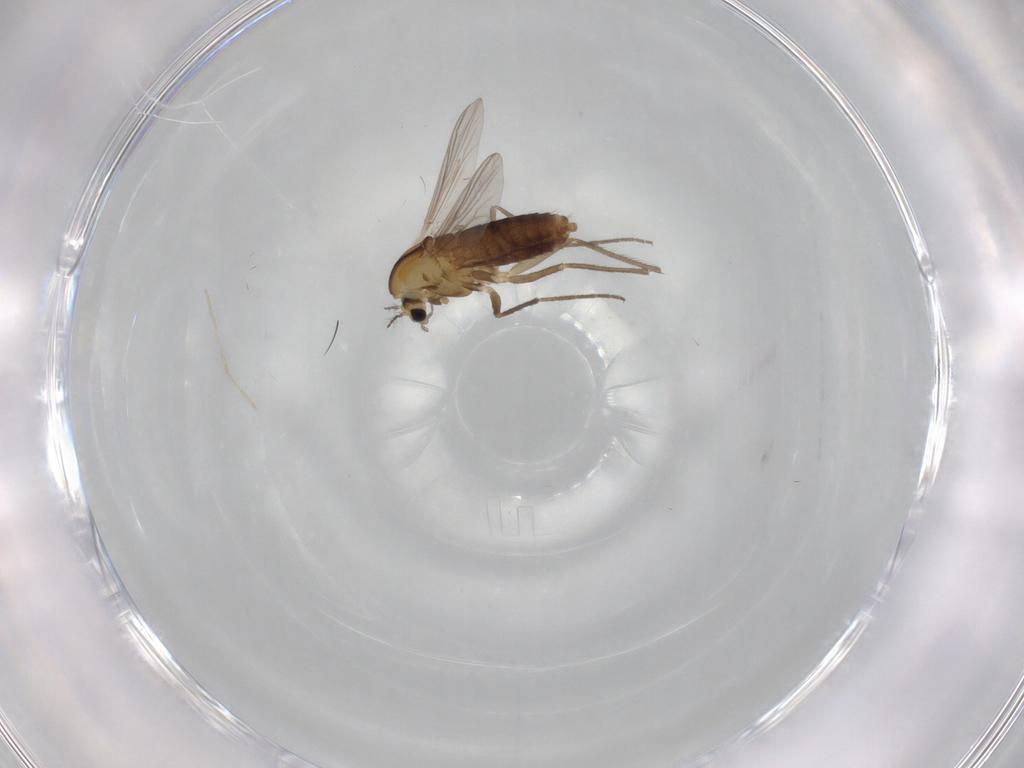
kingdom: Animalia
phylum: Arthropoda
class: Insecta
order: Diptera
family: Chironomidae
